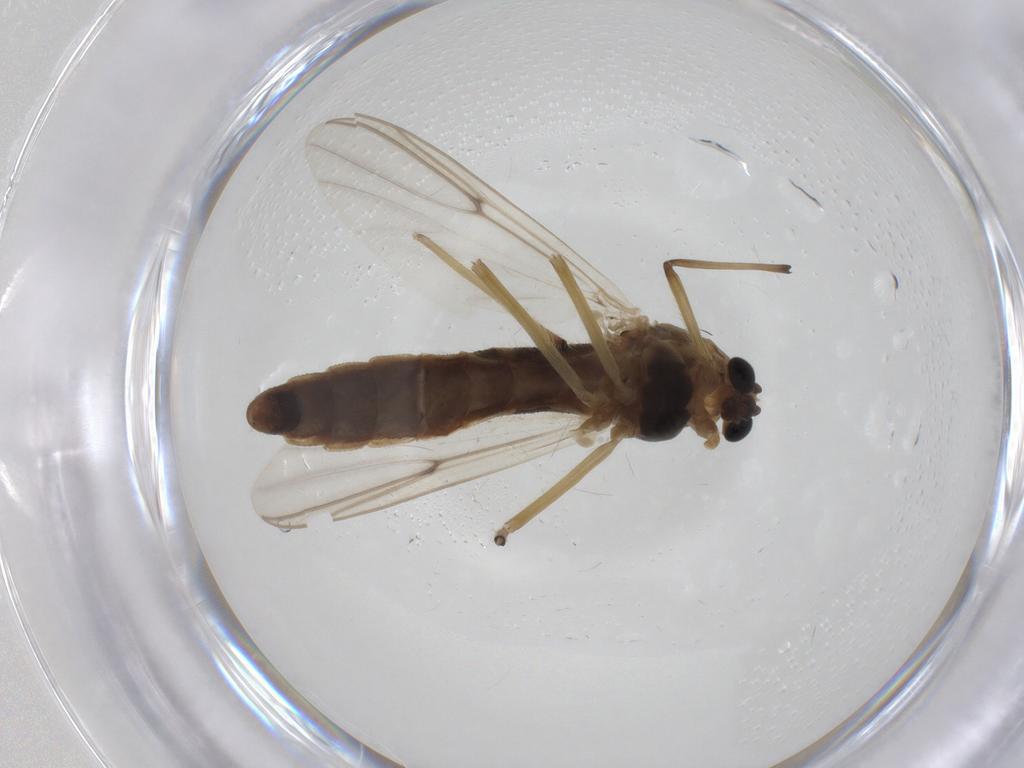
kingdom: Animalia
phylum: Arthropoda
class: Insecta
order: Diptera
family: Chironomidae
